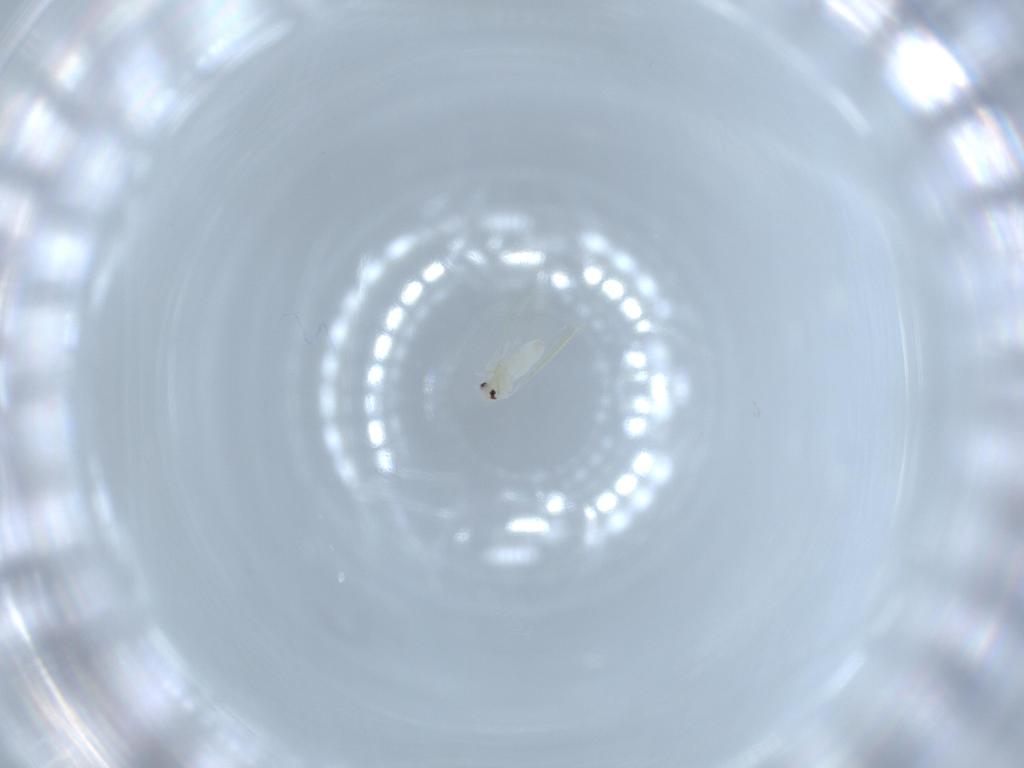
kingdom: Animalia
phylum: Arthropoda
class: Insecta
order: Hemiptera
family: Aleyrodidae
